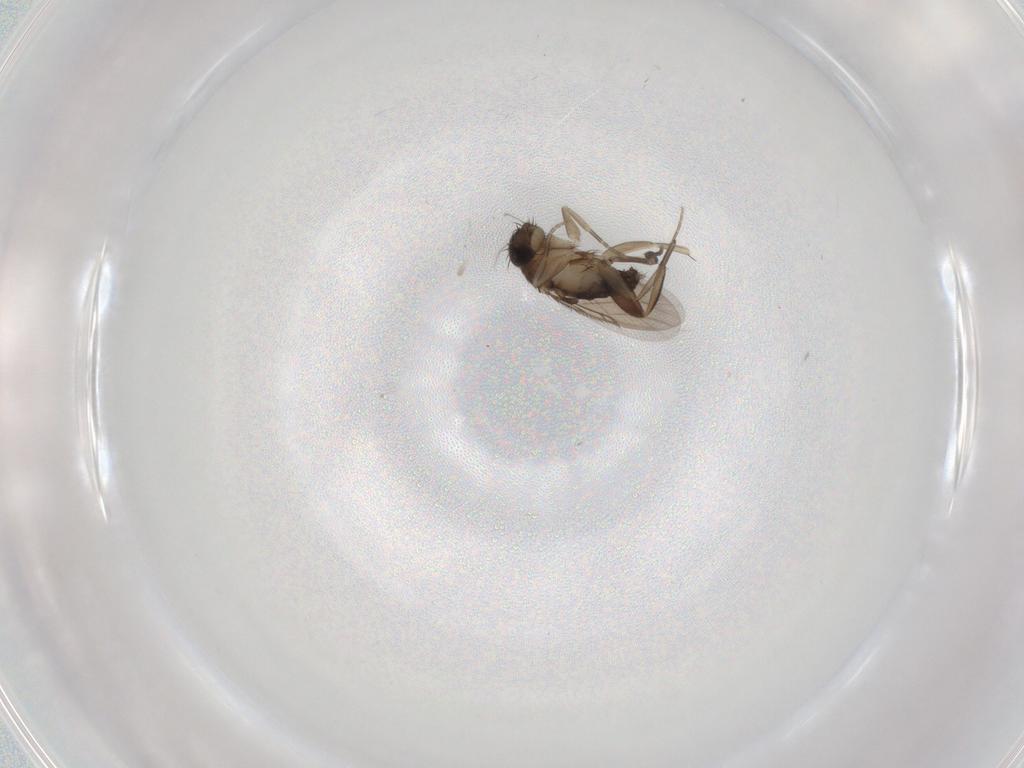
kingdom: Animalia
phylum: Arthropoda
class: Insecta
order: Diptera
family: Phoridae
